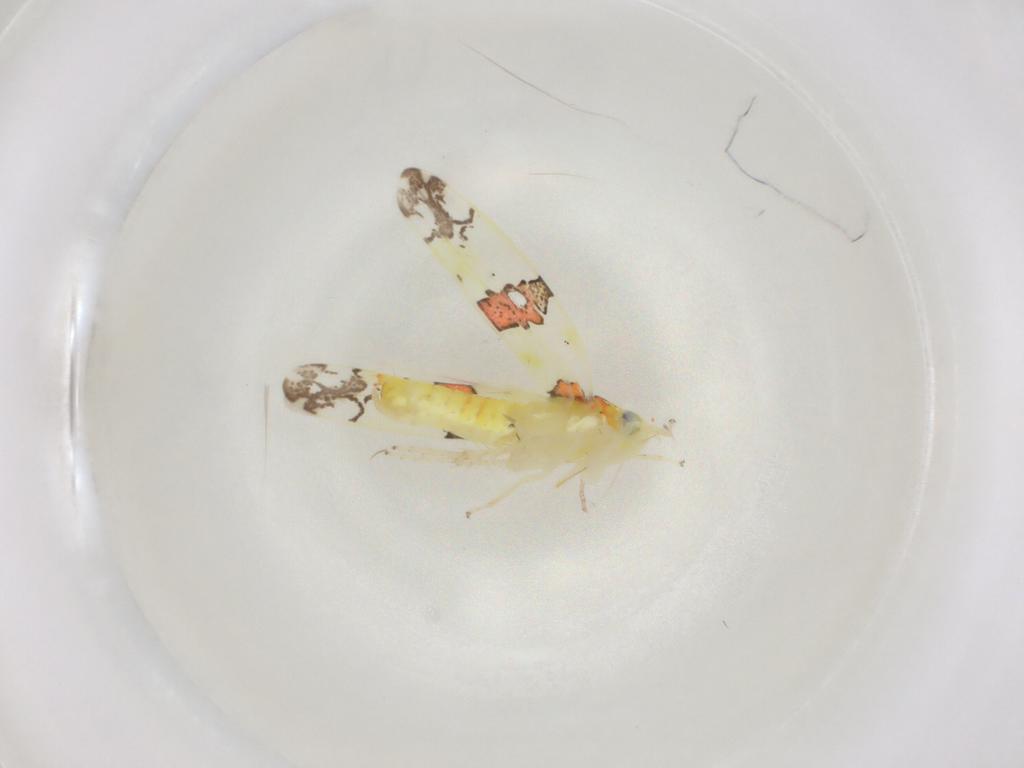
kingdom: Animalia
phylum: Arthropoda
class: Insecta
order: Hemiptera
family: Cicadellidae
